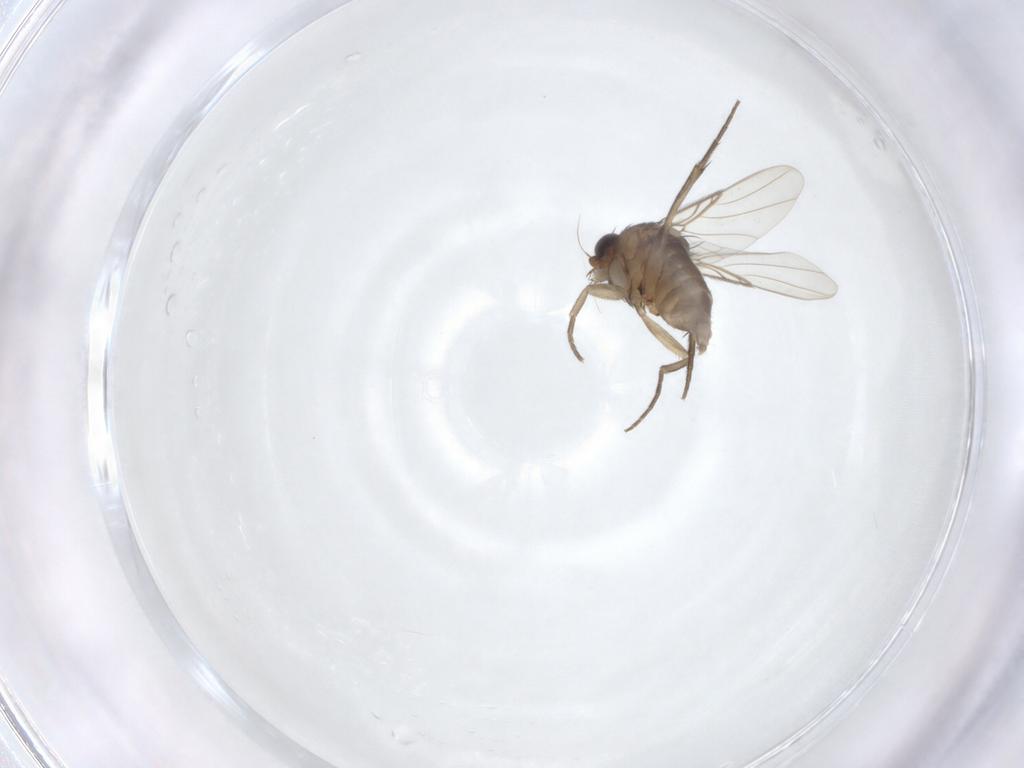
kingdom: Animalia
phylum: Arthropoda
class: Insecta
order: Diptera
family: Phoridae
